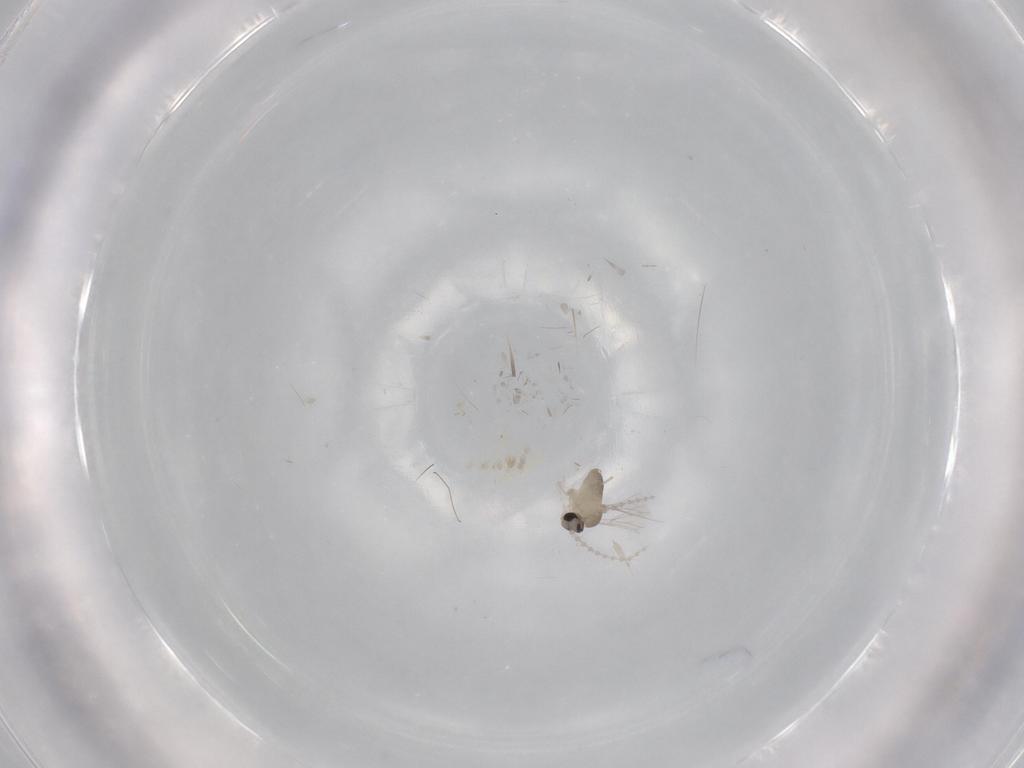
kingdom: Animalia
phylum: Arthropoda
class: Insecta
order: Diptera
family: Cecidomyiidae
